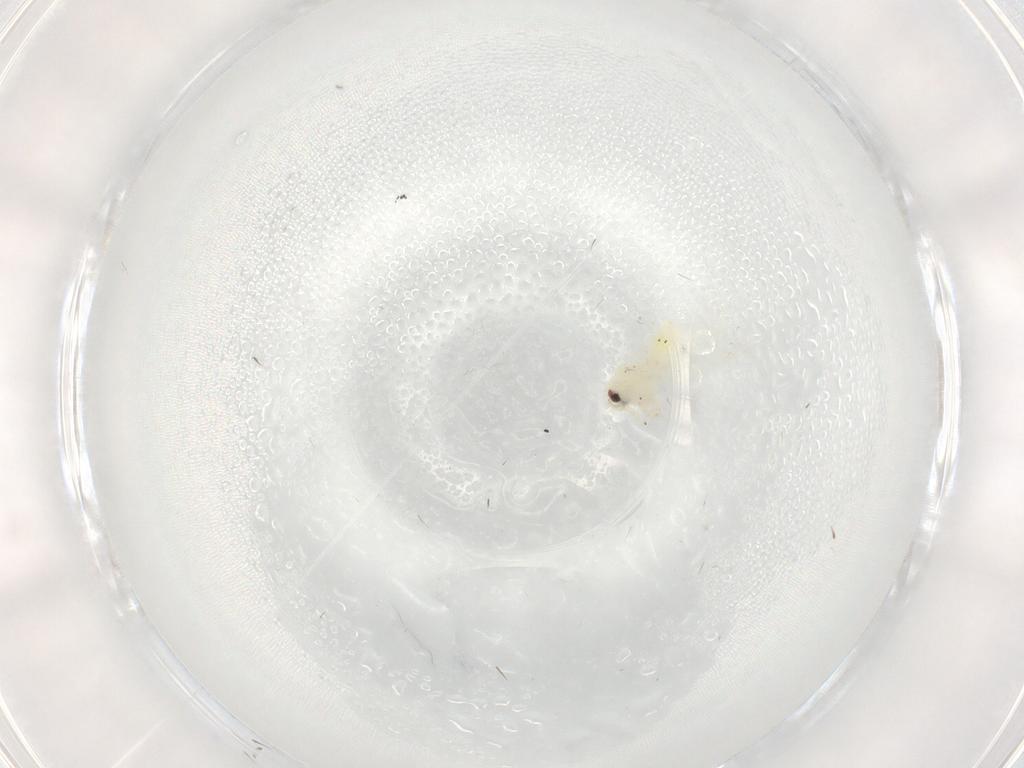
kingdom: Animalia
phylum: Arthropoda
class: Insecta
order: Hemiptera
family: Aleyrodidae
